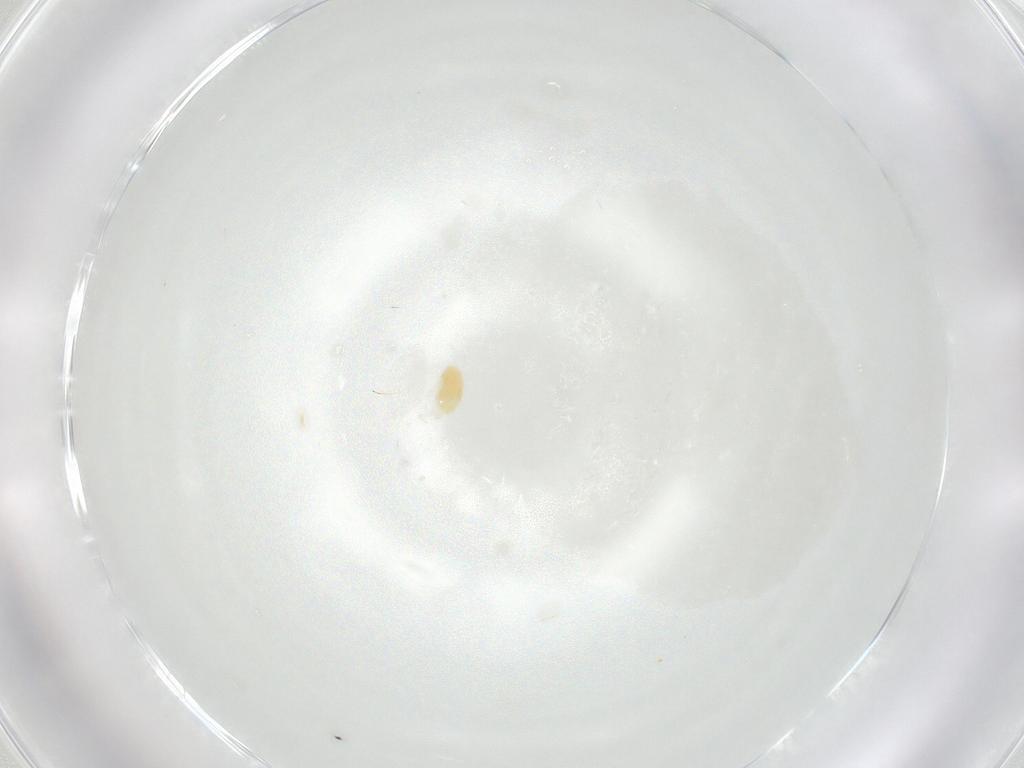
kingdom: Animalia
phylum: Arthropoda
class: Arachnida
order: Trombidiformes
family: Eupodidae
